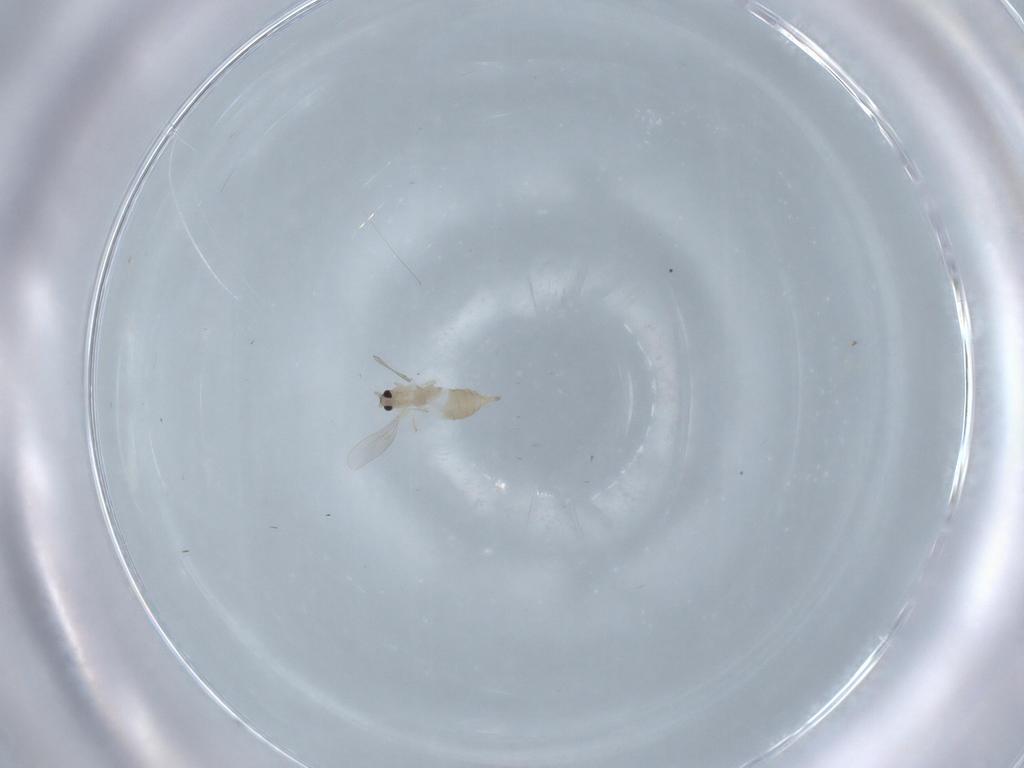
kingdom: Animalia
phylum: Arthropoda
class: Insecta
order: Diptera
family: Cecidomyiidae
